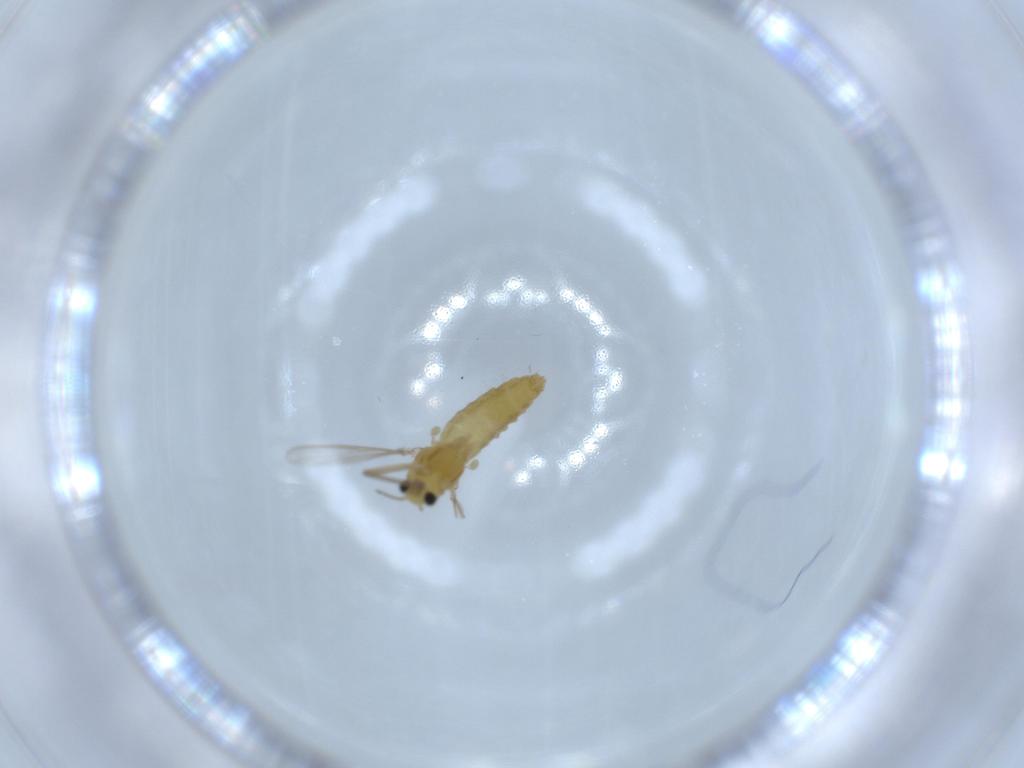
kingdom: Animalia
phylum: Arthropoda
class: Insecta
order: Diptera
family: Chironomidae
